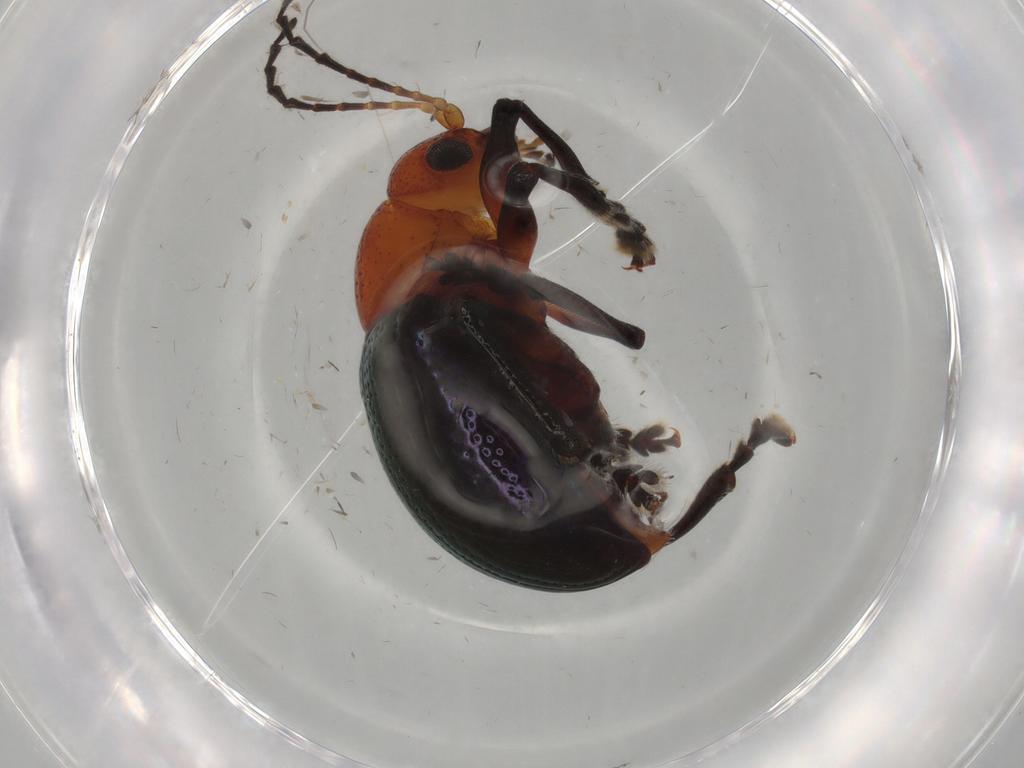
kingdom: Animalia
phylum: Arthropoda
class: Insecta
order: Coleoptera
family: Chrysomelidae
